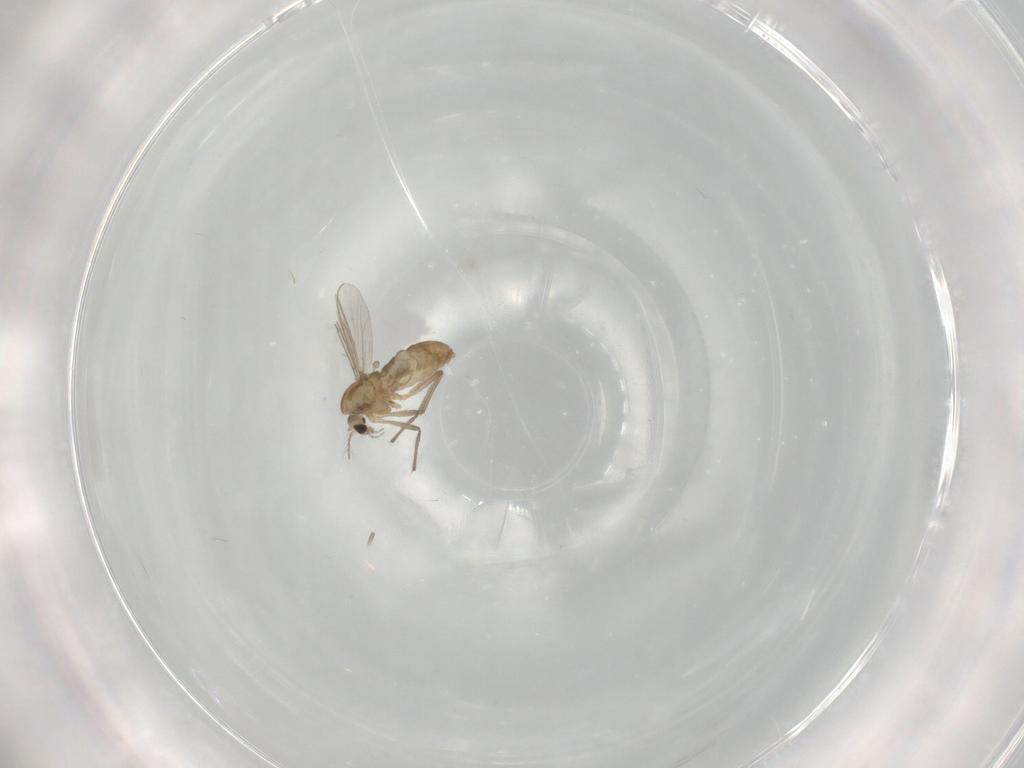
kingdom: Animalia
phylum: Arthropoda
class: Insecta
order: Diptera
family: Chironomidae
